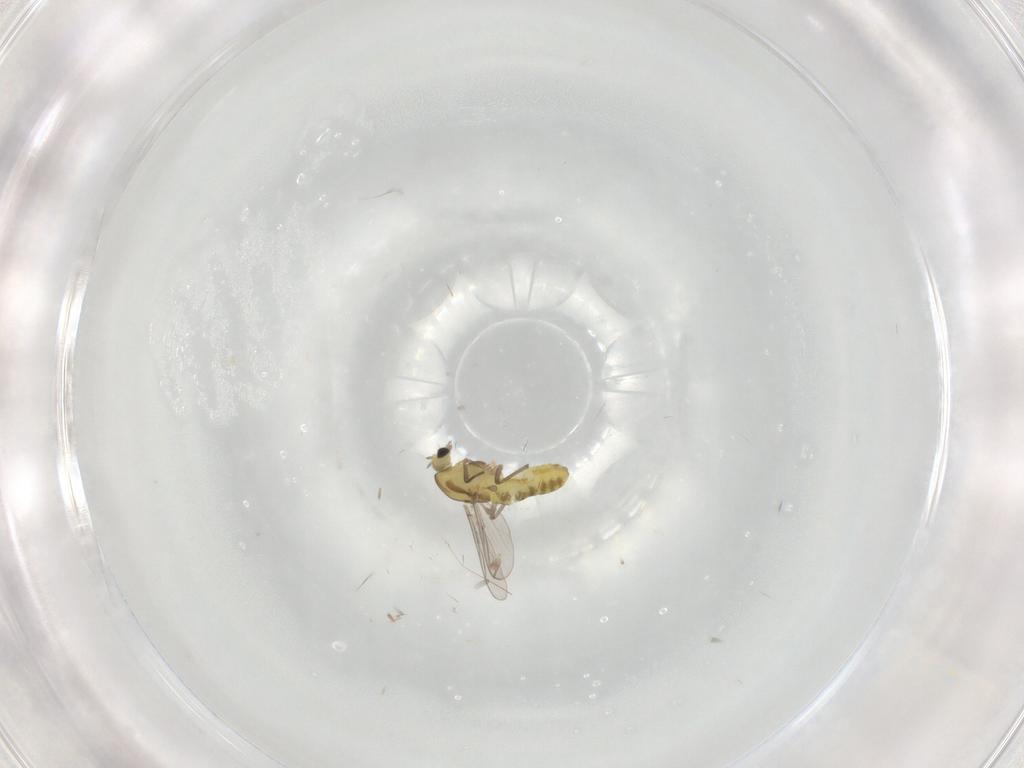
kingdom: Animalia
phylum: Arthropoda
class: Insecta
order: Diptera
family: Chironomidae
